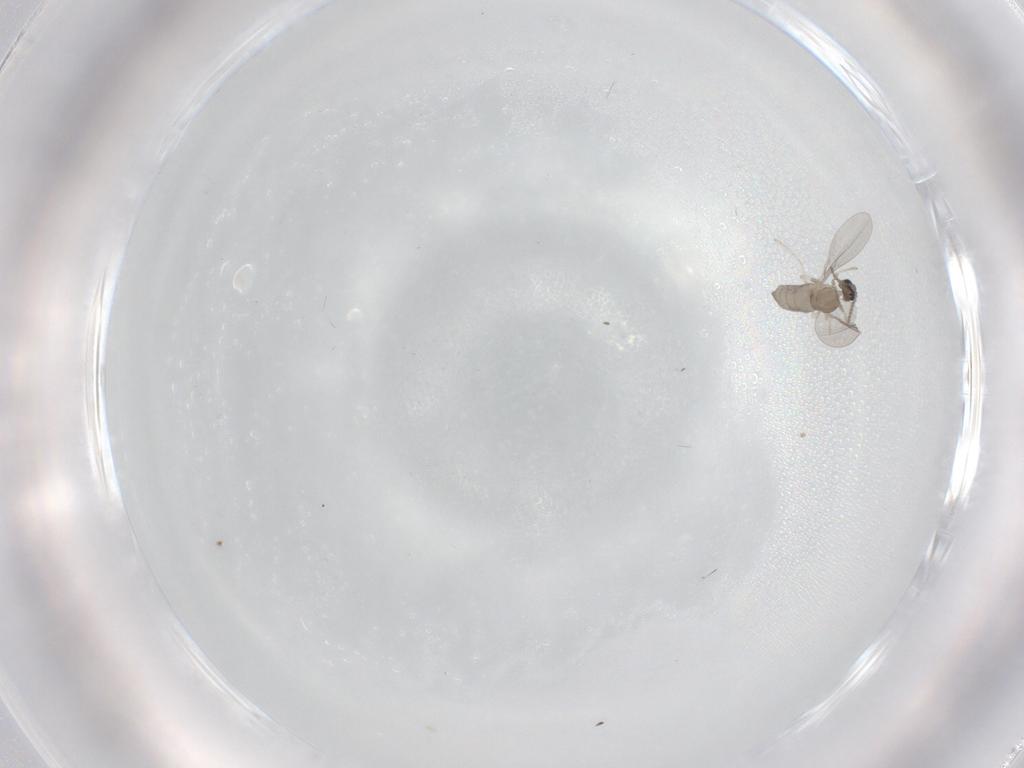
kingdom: Animalia
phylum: Arthropoda
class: Insecta
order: Diptera
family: Cecidomyiidae
